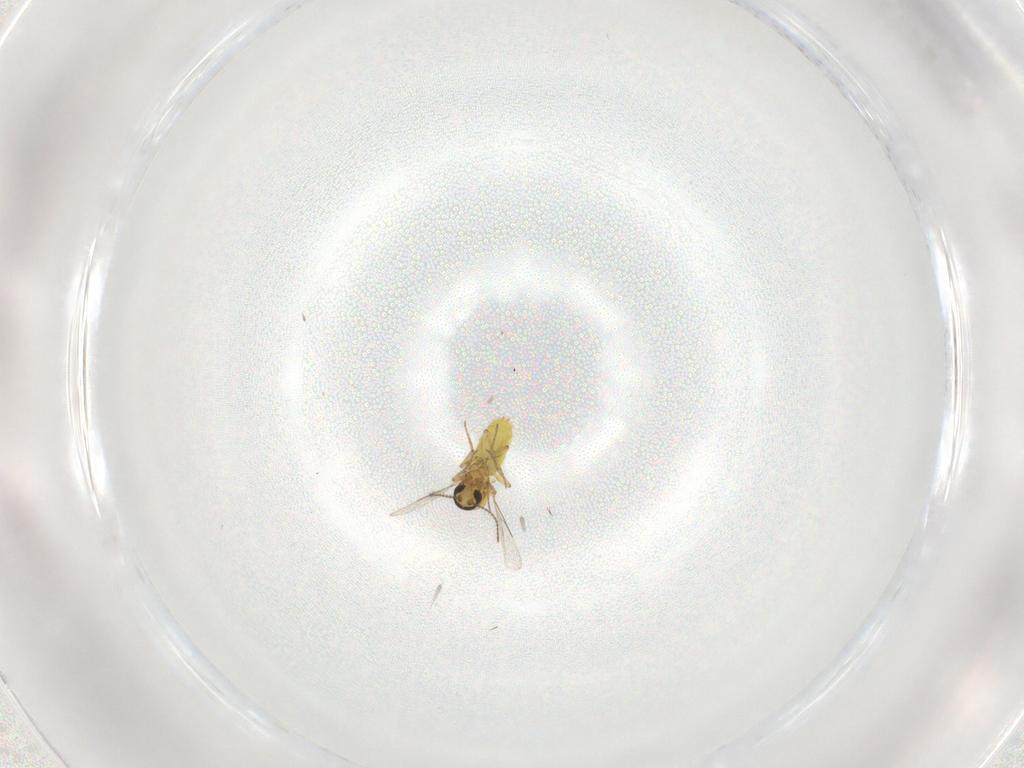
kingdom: Animalia
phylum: Arthropoda
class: Insecta
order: Diptera
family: Ceratopogonidae
